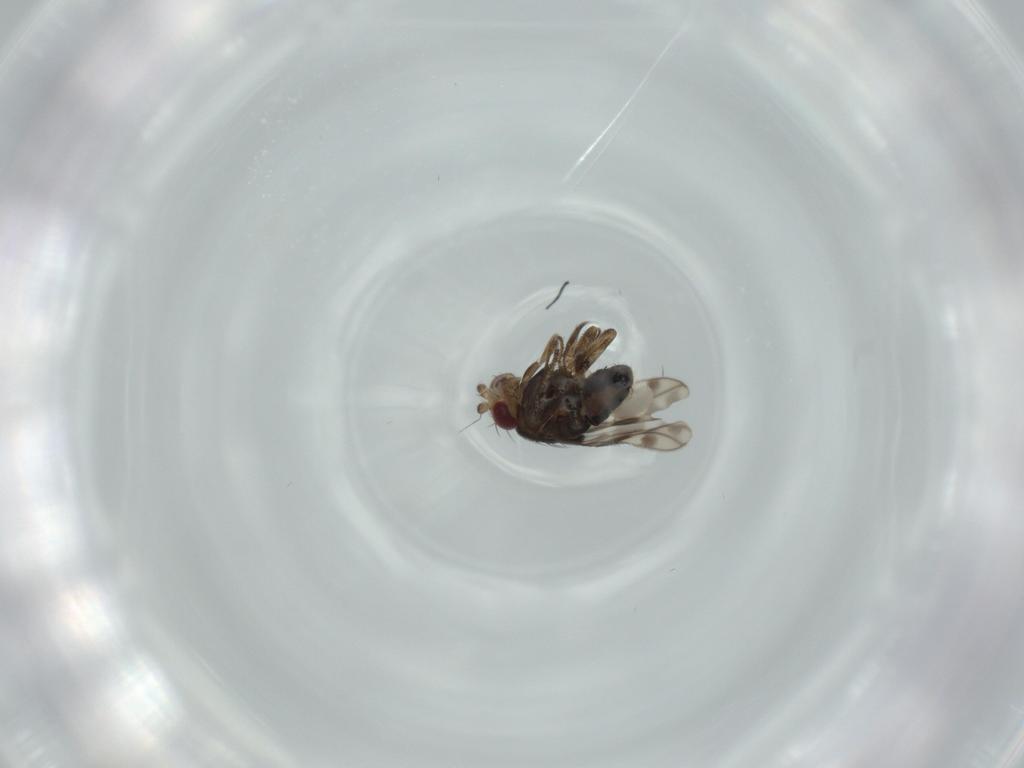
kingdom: Animalia
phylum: Arthropoda
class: Insecta
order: Diptera
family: Sphaeroceridae
